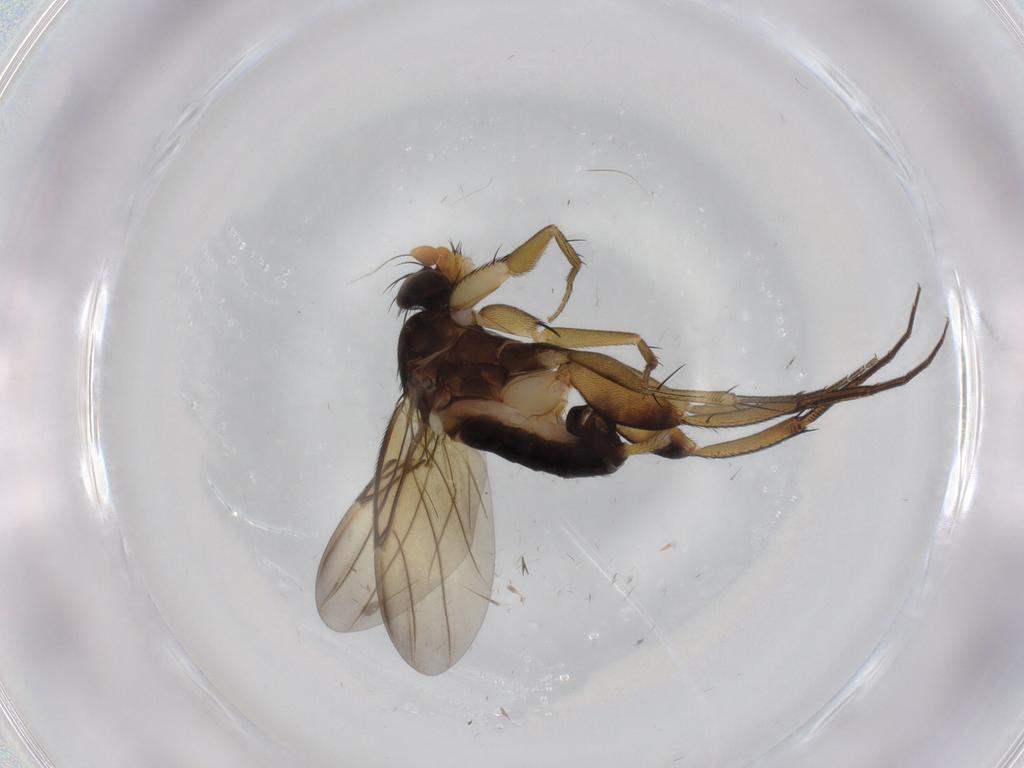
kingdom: Animalia
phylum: Arthropoda
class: Insecta
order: Diptera
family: Phoridae
